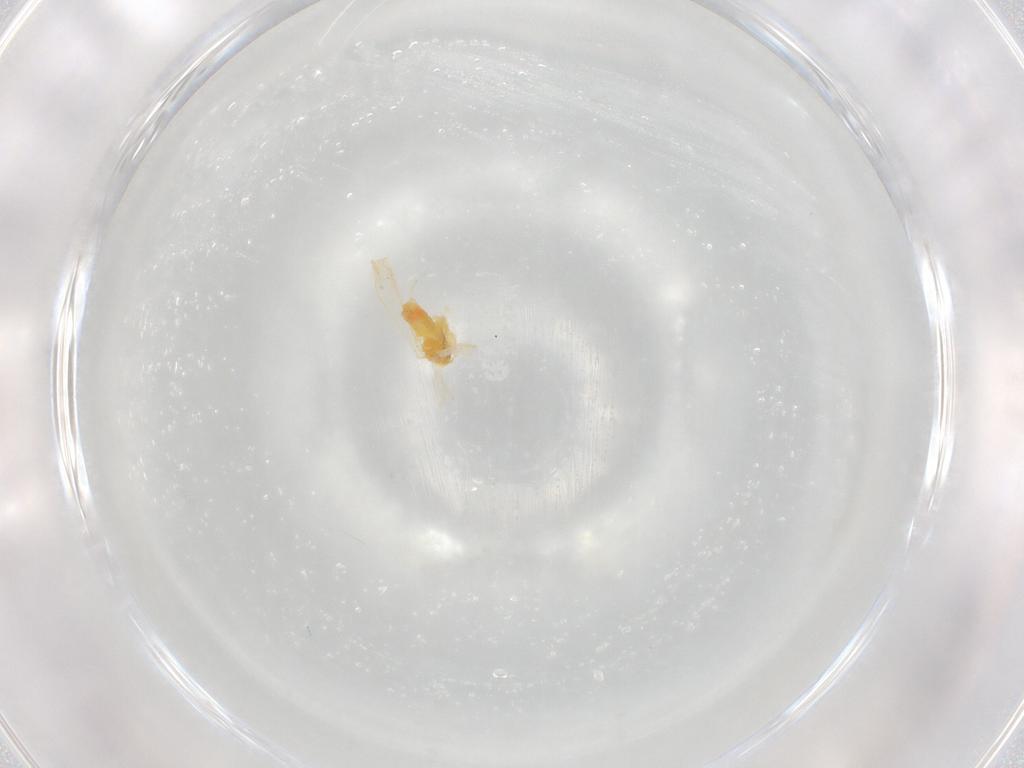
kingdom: Animalia
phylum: Arthropoda
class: Insecta
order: Hemiptera
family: Aleyrodidae
